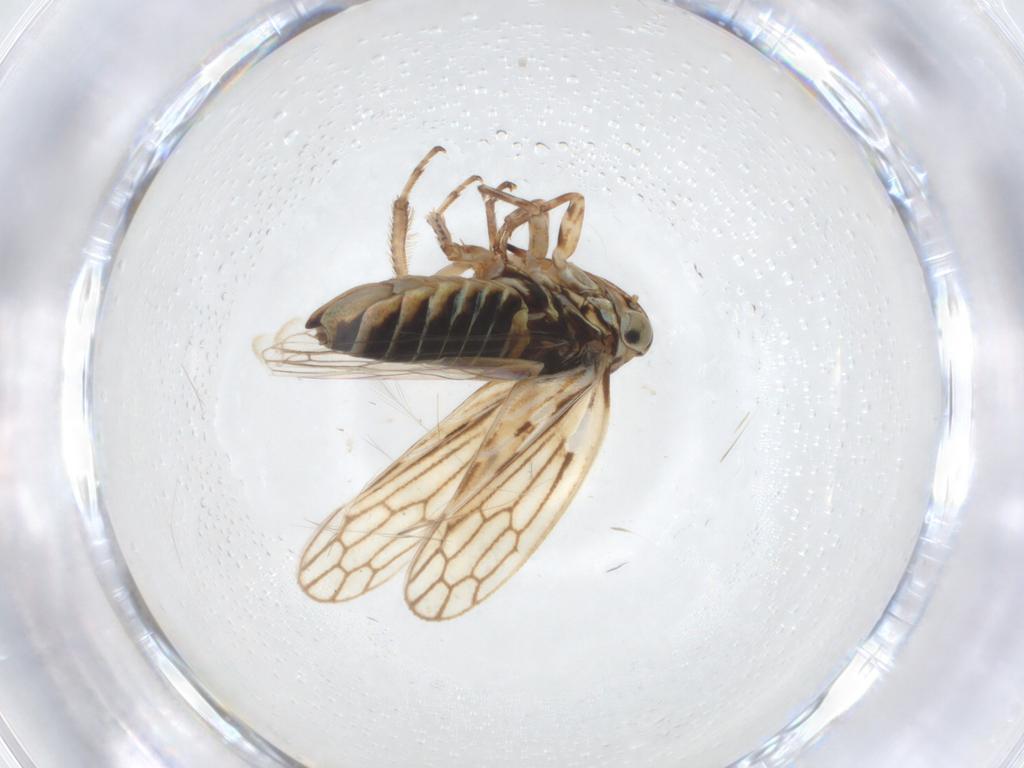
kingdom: Animalia
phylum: Arthropoda
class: Insecta
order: Hemiptera
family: Cicadellidae
